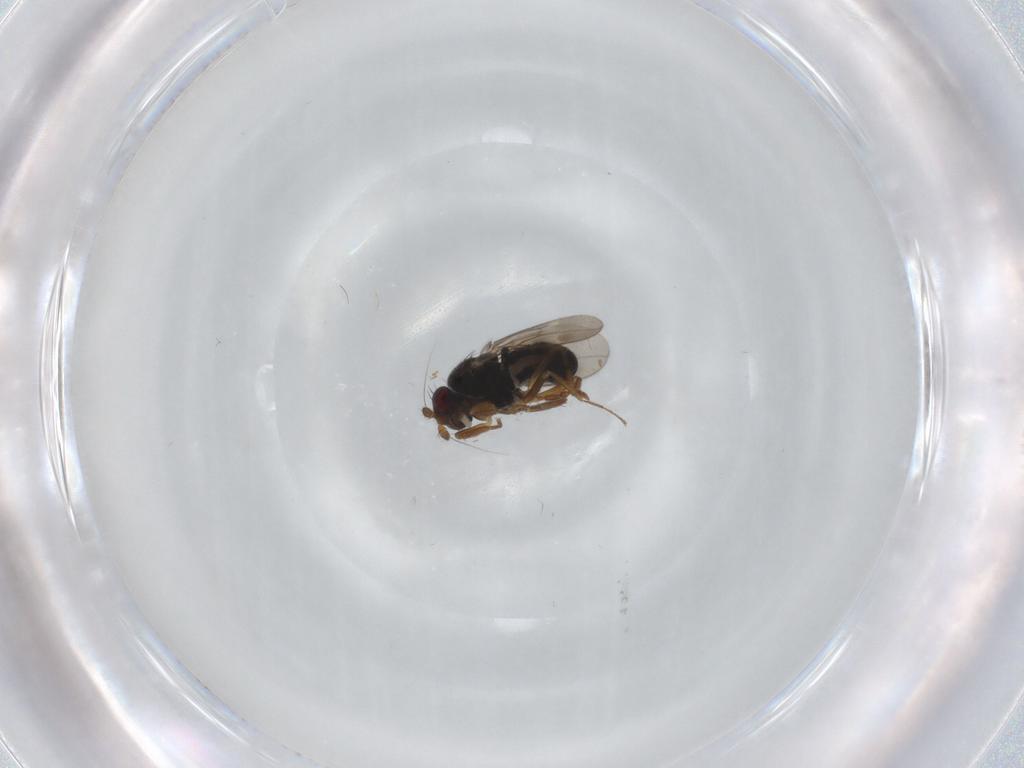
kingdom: Animalia
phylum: Arthropoda
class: Insecta
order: Diptera
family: Sphaeroceridae
